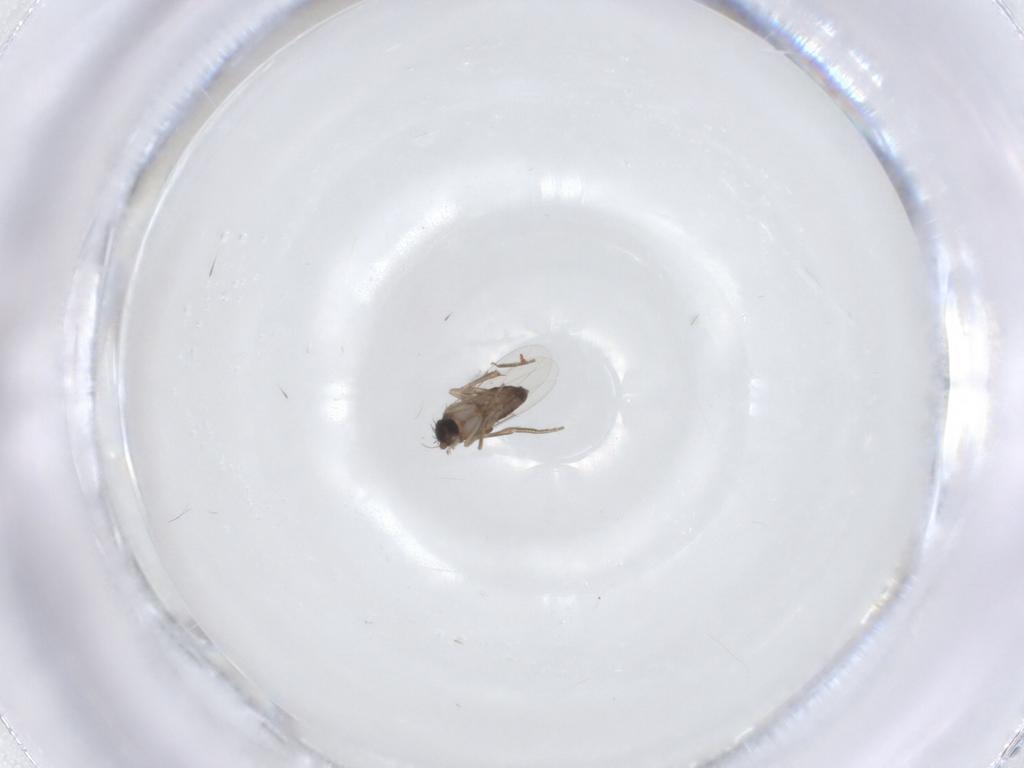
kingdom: Animalia
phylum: Arthropoda
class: Insecta
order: Diptera
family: Phoridae
